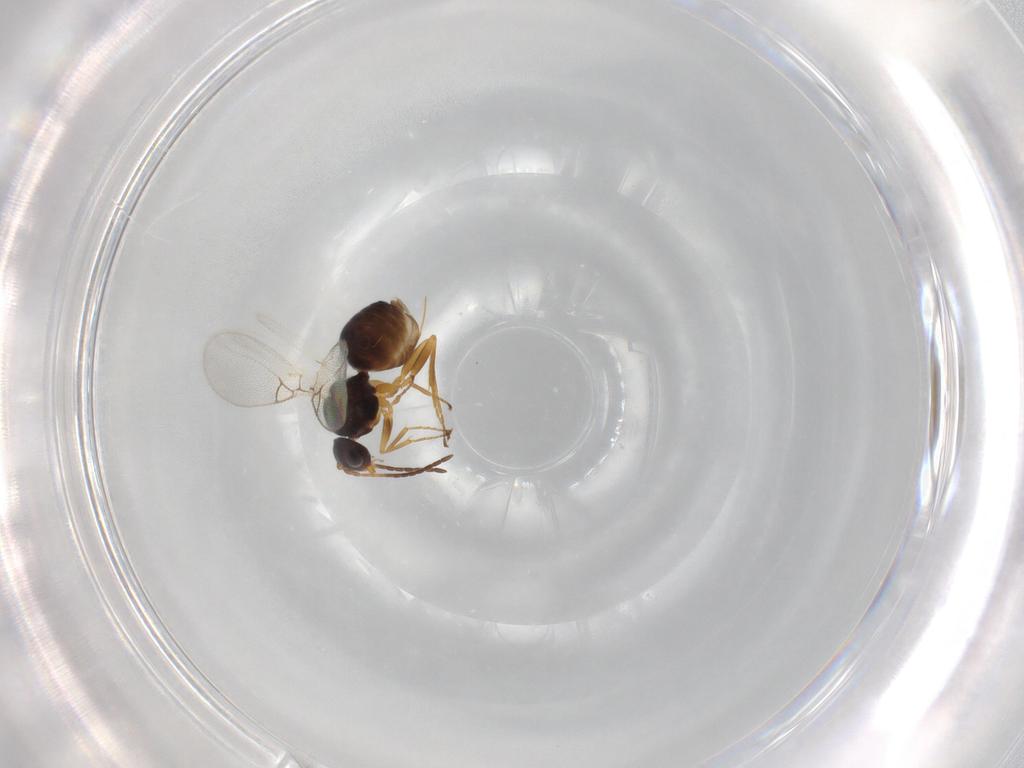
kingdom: Animalia
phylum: Arthropoda
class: Insecta
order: Hymenoptera
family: Figitidae
